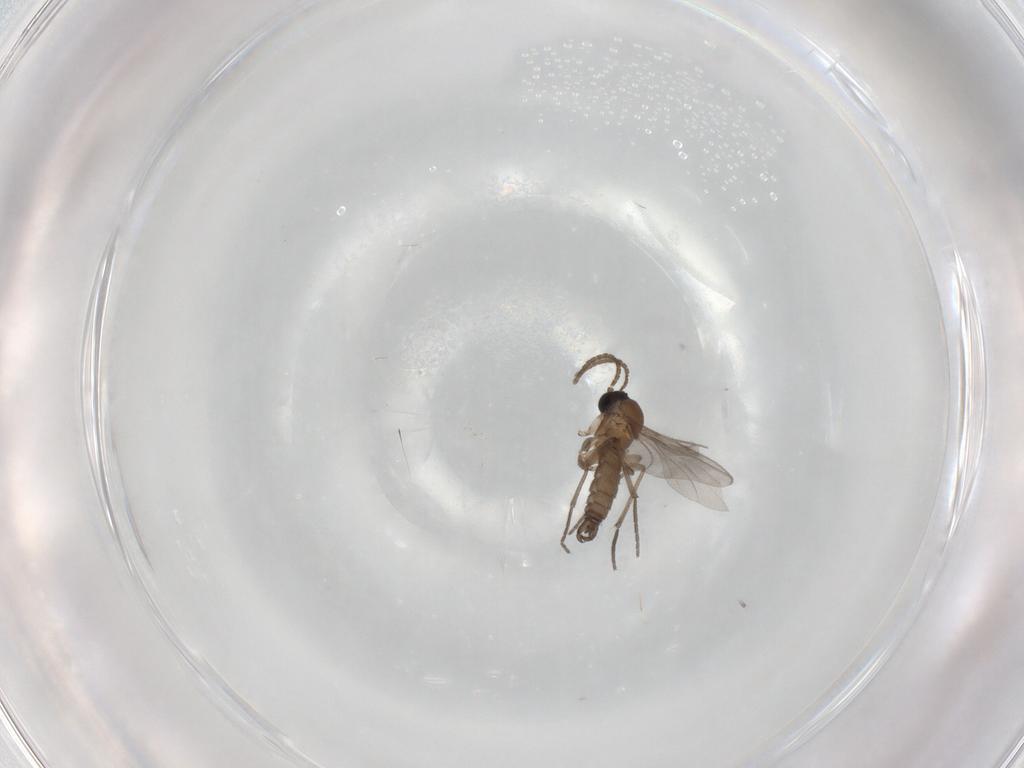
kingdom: Animalia
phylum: Arthropoda
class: Insecta
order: Diptera
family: Sciaridae
